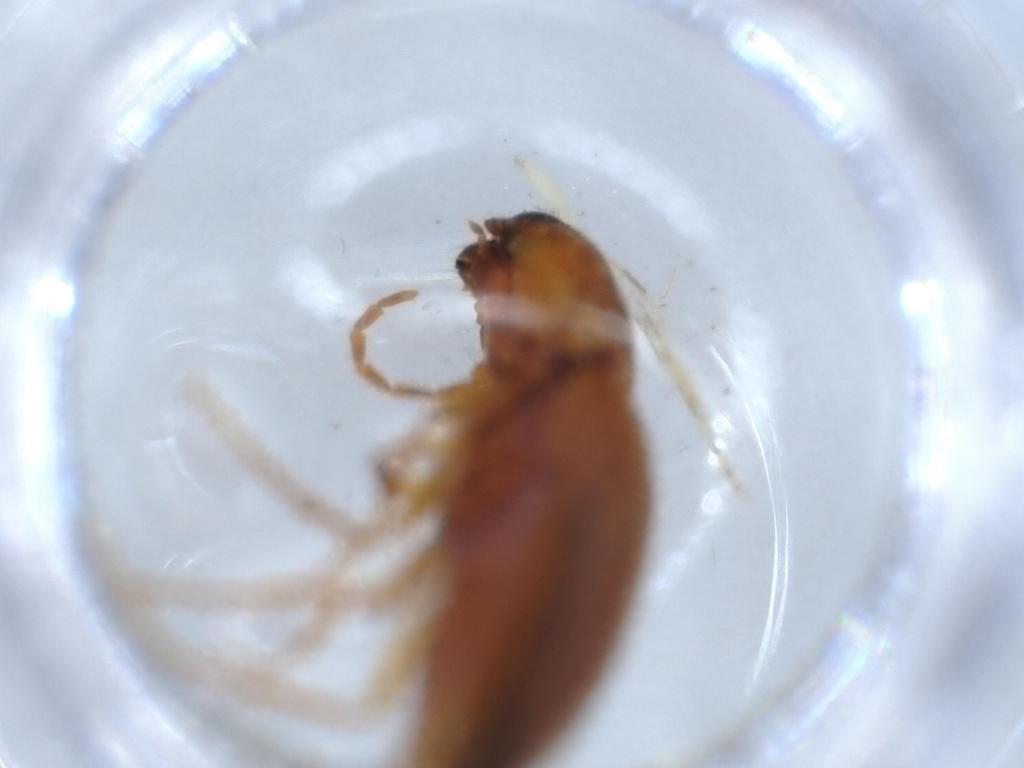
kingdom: Animalia
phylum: Arthropoda
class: Insecta
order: Coleoptera
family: Elateridae
